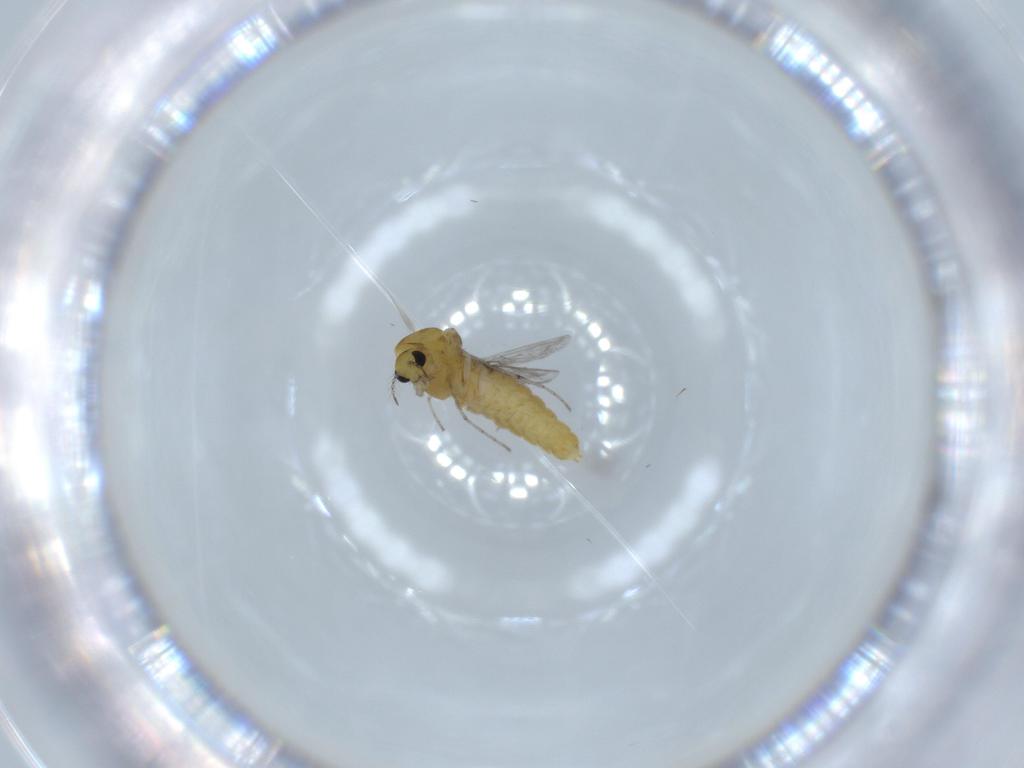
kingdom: Animalia
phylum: Arthropoda
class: Insecta
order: Diptera
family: Chironomidae
